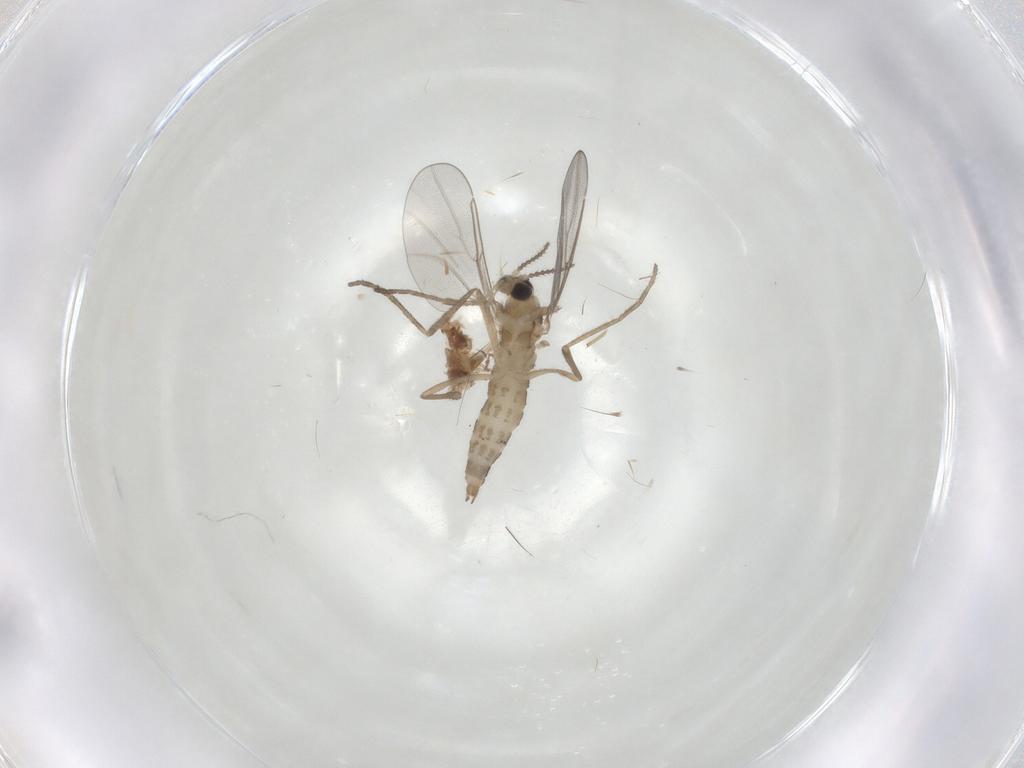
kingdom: Animalia
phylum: Arthropoda
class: Insecta
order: Diptera
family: Cecidomyiidae
